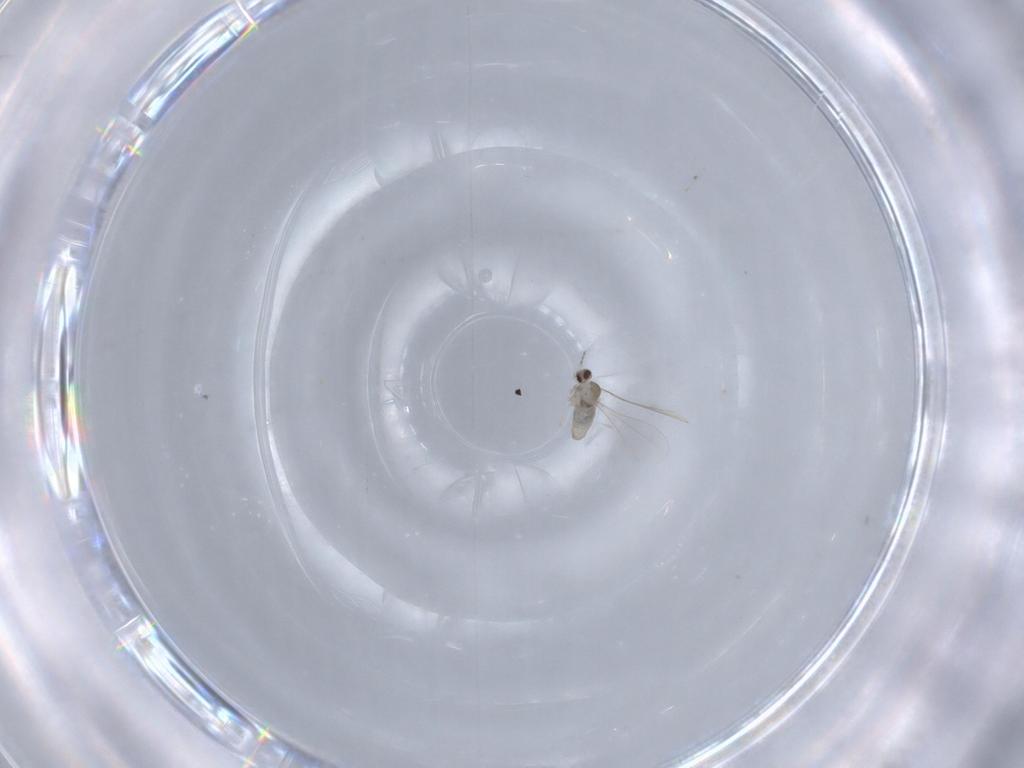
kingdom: Animalia
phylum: Arthropoda
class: Insecta
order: Diptera
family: Cecidomyiidae
